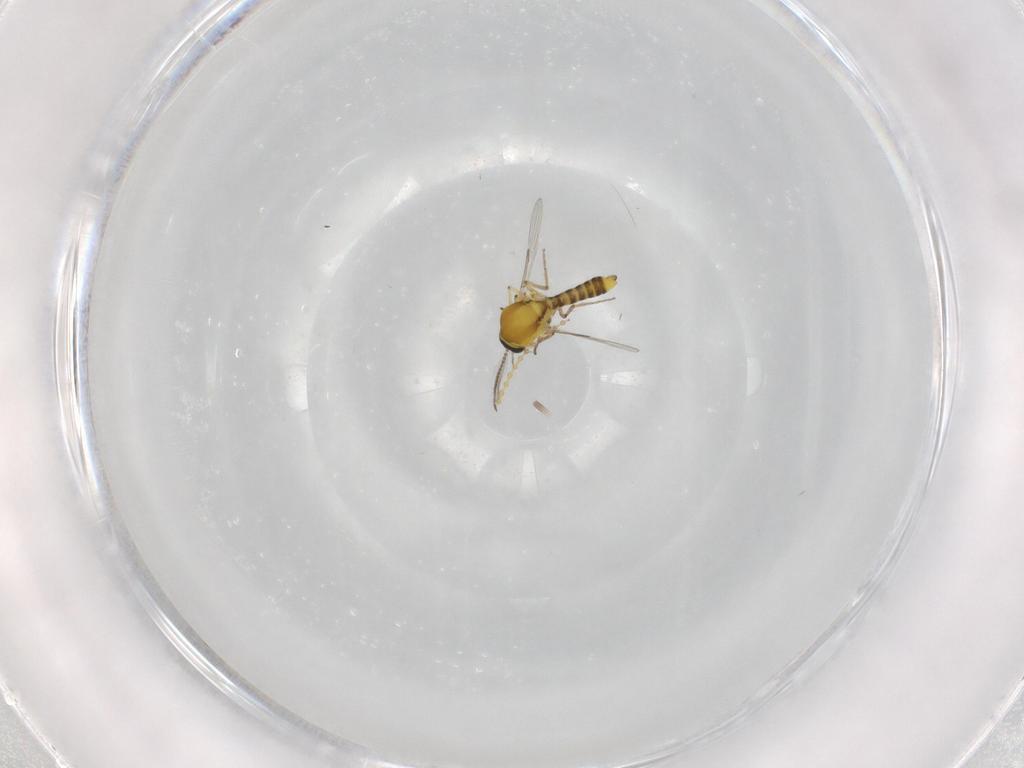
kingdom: Animalia
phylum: Arthropoda
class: Insecta
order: Diptera
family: Ceratopogonidae
